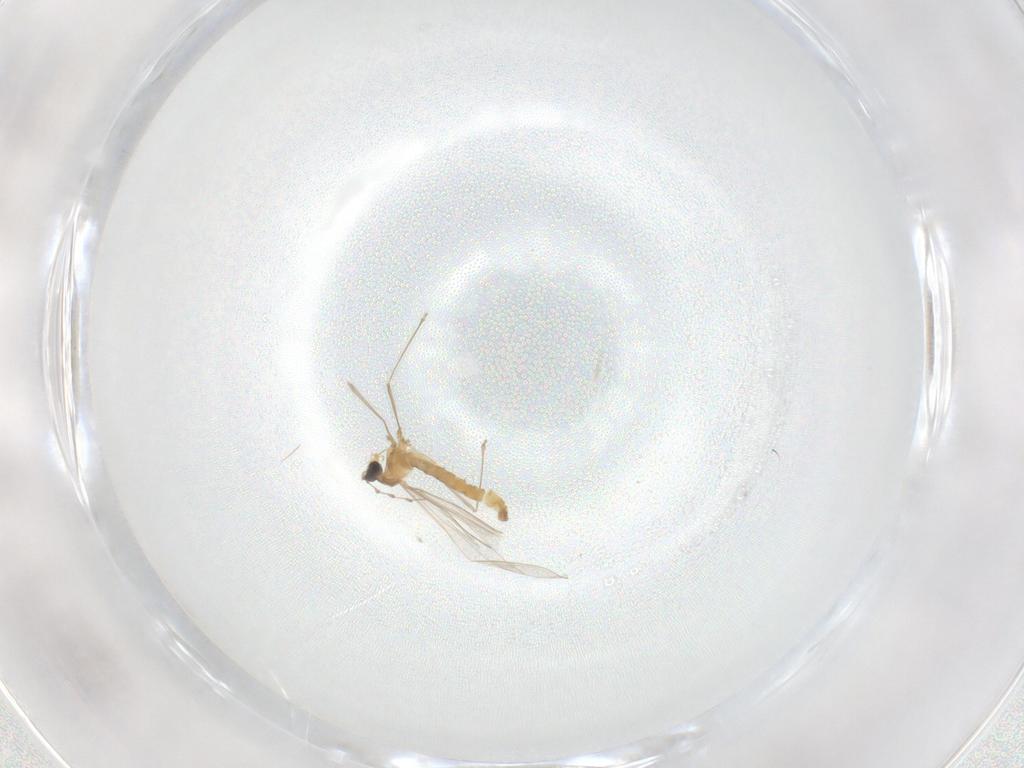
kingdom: Animalia
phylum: Arthropoda
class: Insecta
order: Diptera
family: Cecidomyiidae
